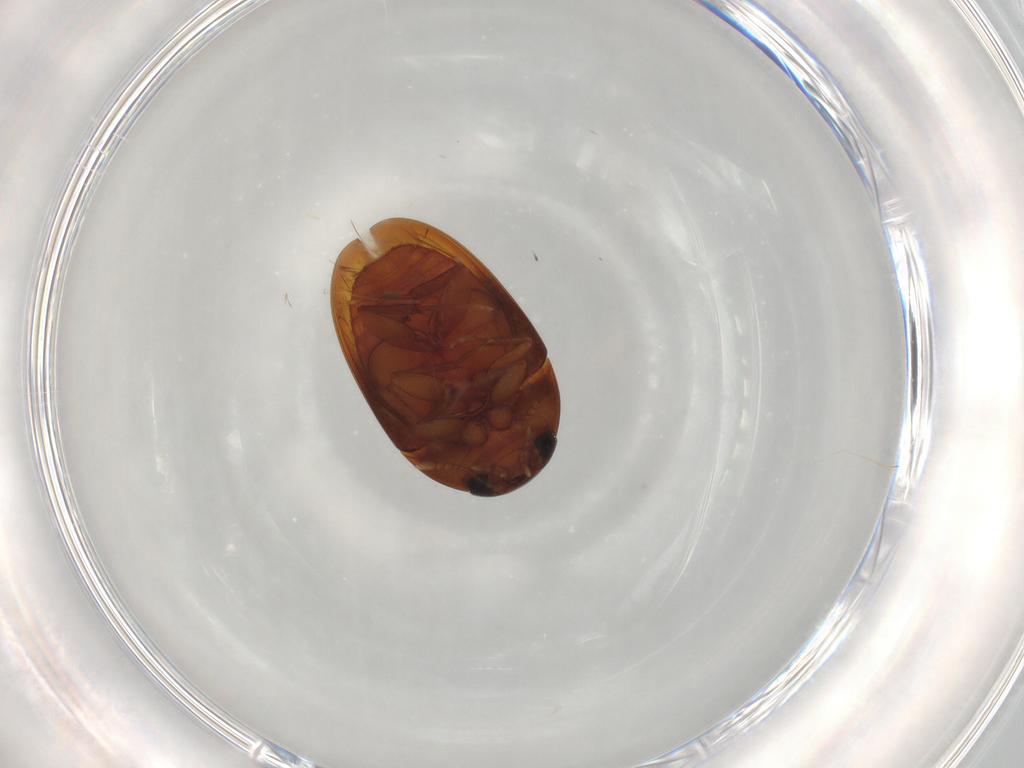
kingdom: Animalia
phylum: Arthropoda
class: Insecta
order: Coleoptera
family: Phalacridae
